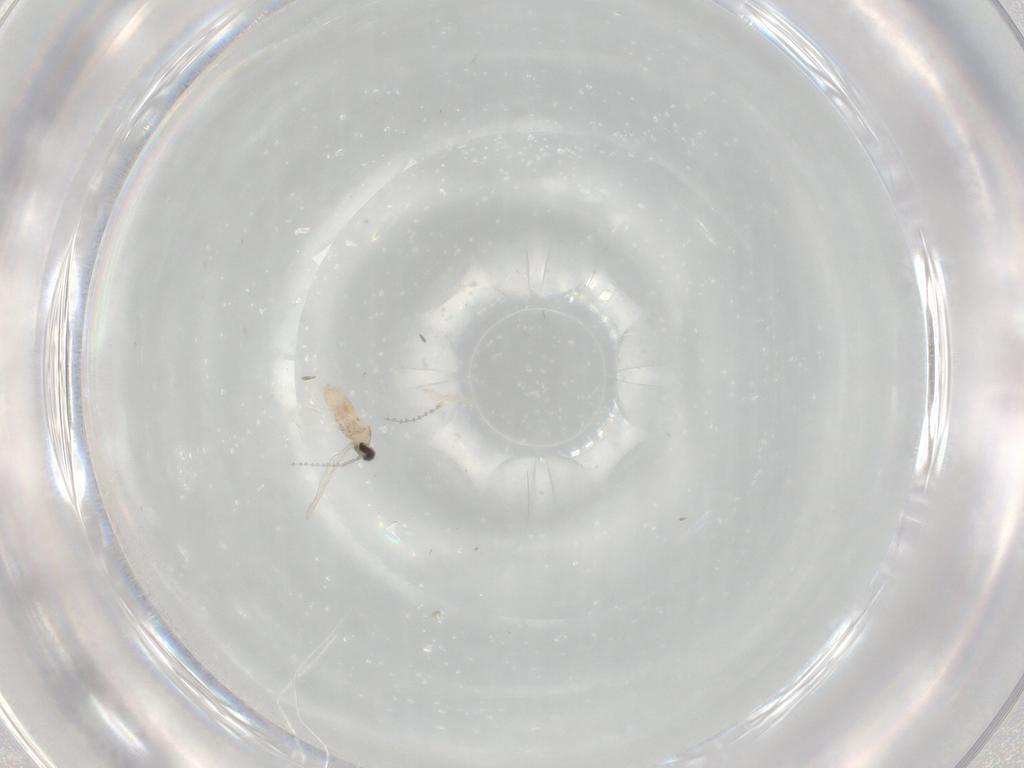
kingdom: Animalia
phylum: Arthropoda
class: Insecta
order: Diptera
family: Cecidomyiidae
